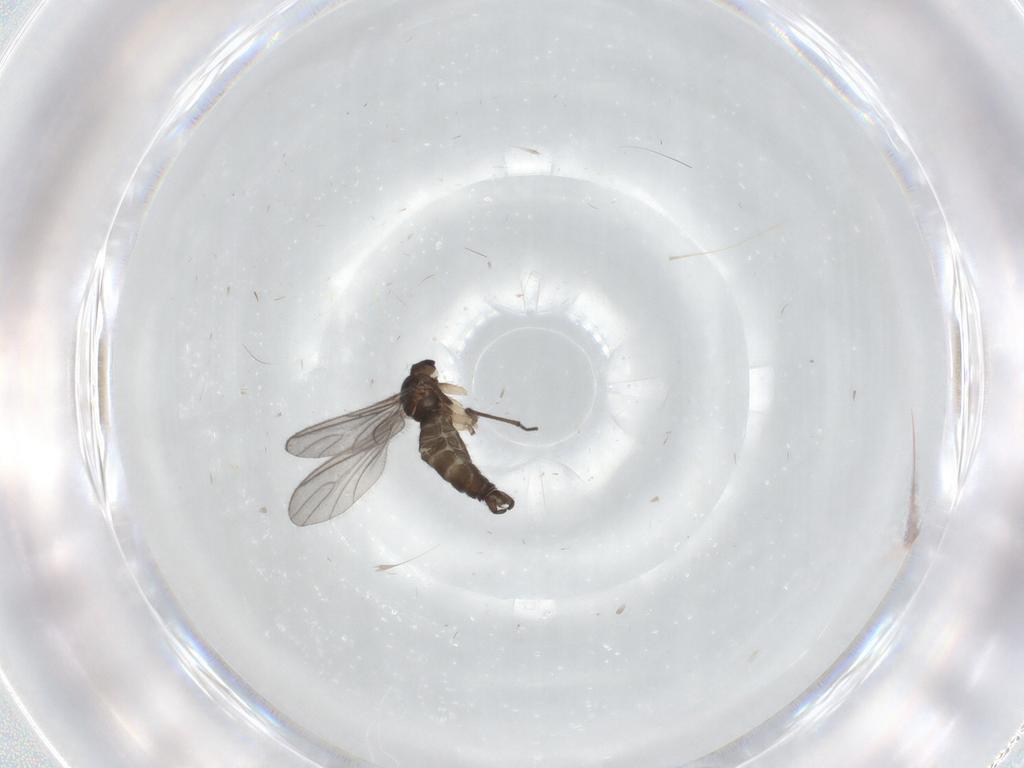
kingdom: Animalia
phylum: Arthropoda
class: Insecta
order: Diptera
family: Sciaridae
